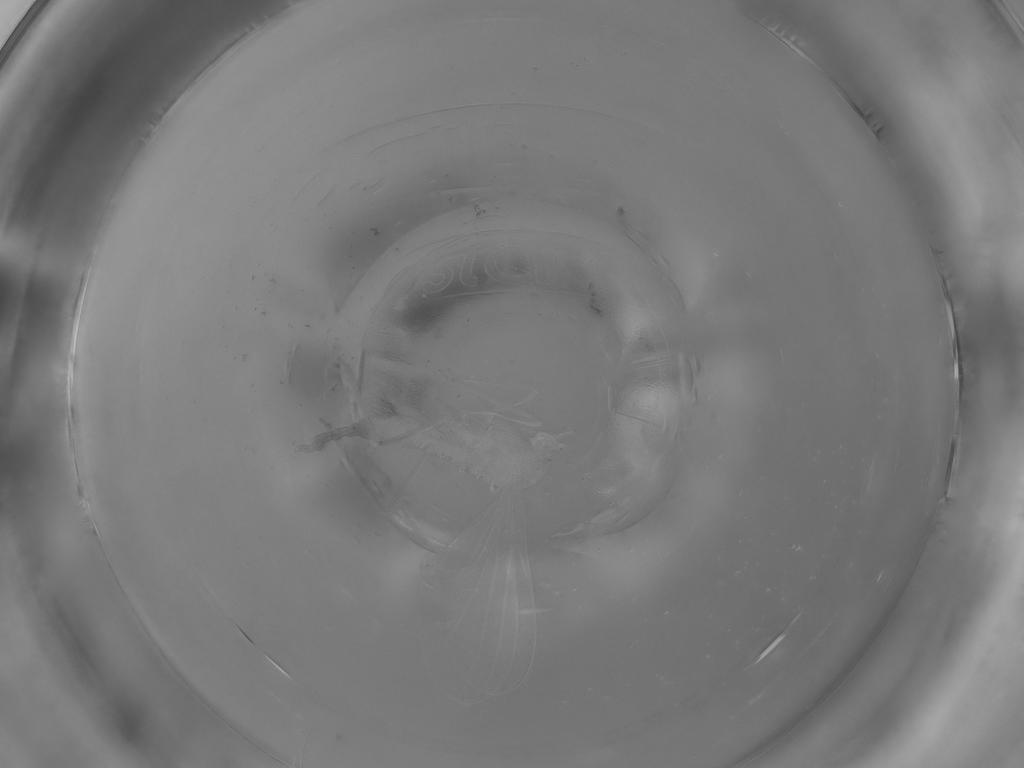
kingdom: Animalia
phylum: Arthropoda
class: Insecta
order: Diptera
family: Cecidomyiidae
